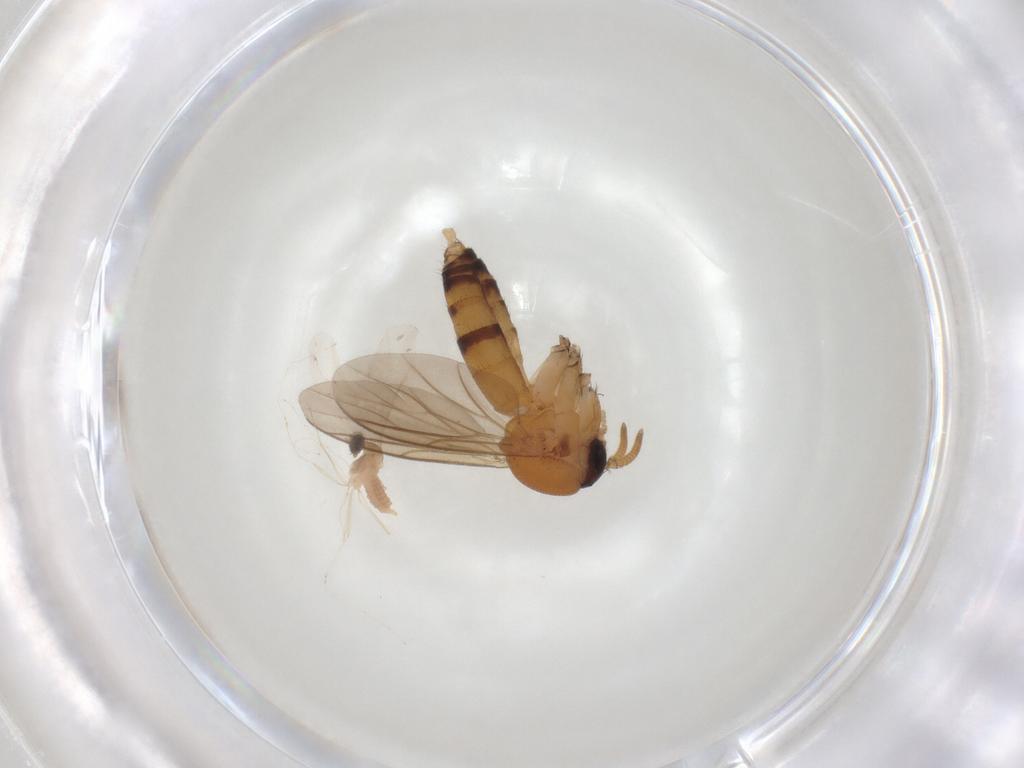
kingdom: Animalia
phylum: Arthropoda
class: Insecta
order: Diptera
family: Cecidomyiidae
